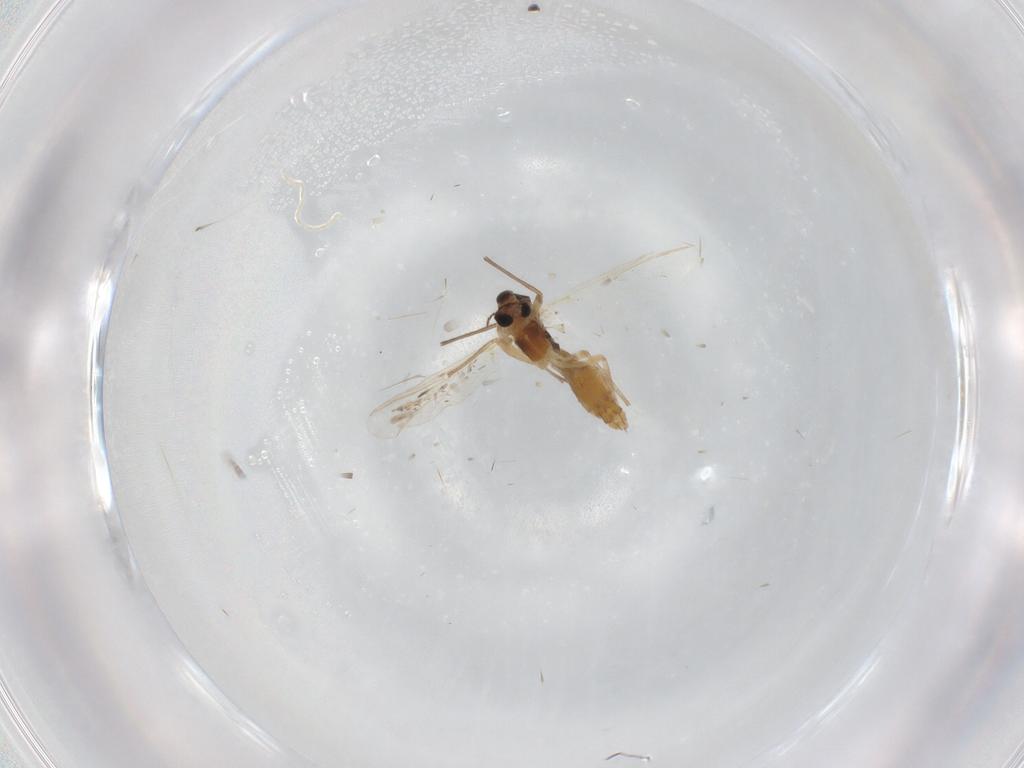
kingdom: Animalia
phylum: Arthropoda
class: Insecta
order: Diptera
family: Chironomidae
